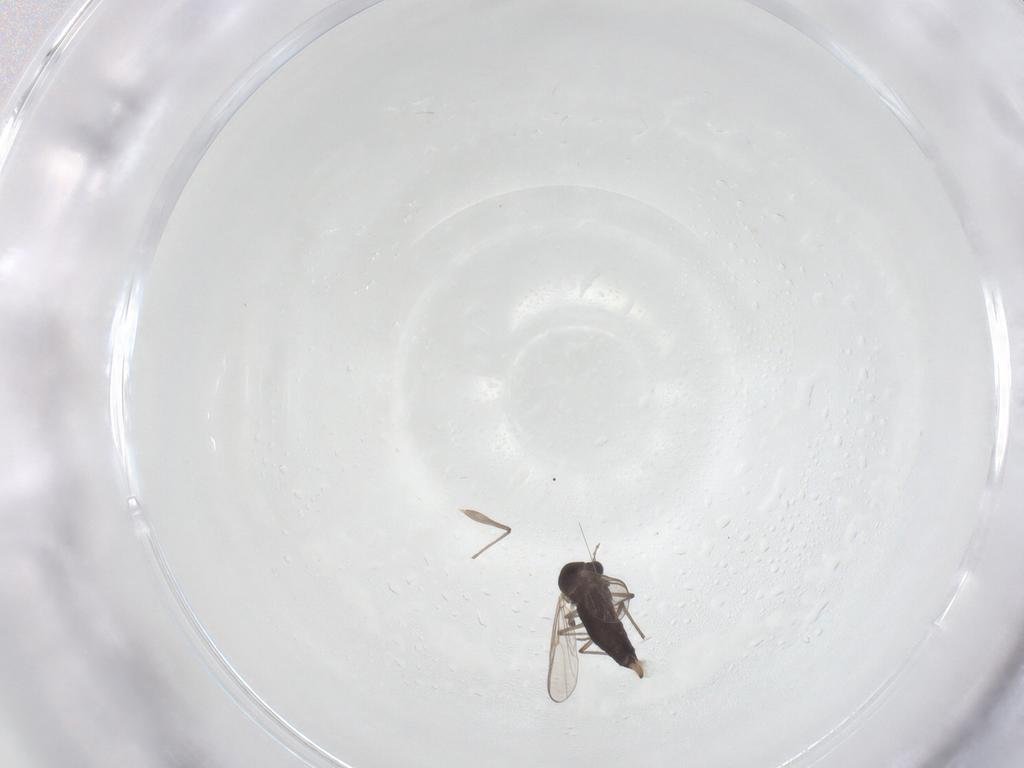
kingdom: Animalia
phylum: Arthropoda
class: Insecta
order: Diptera
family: Chironomidae
